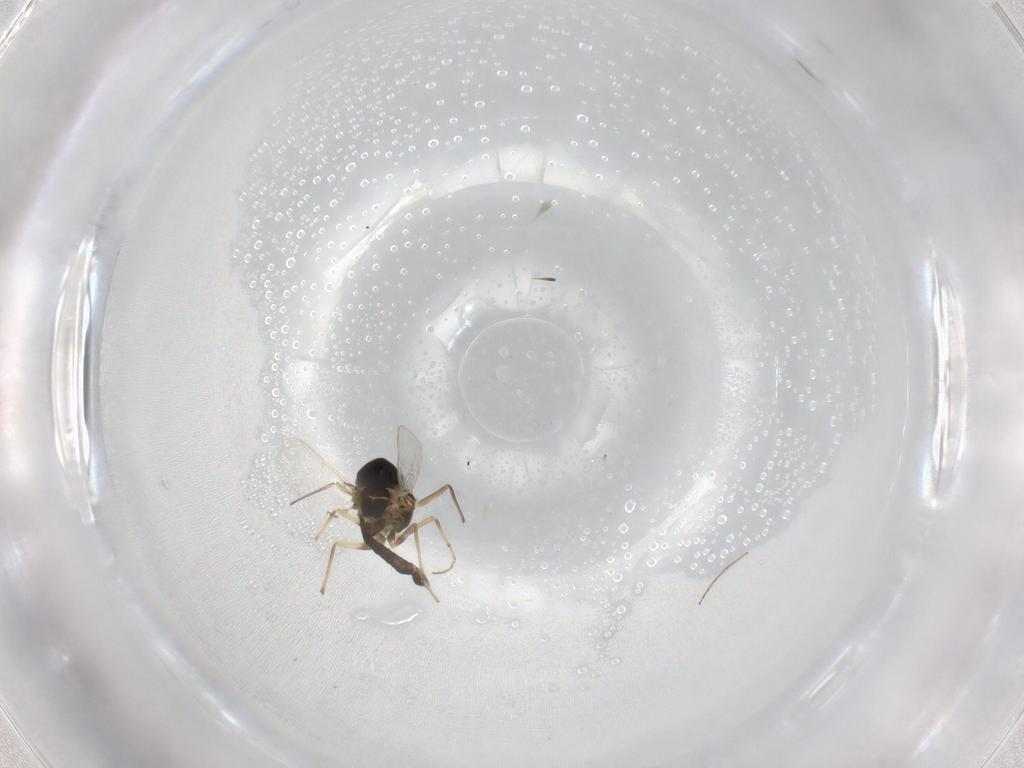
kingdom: Animalia
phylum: Arthropoda
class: Insecta
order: Diptera
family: Chironomidae
